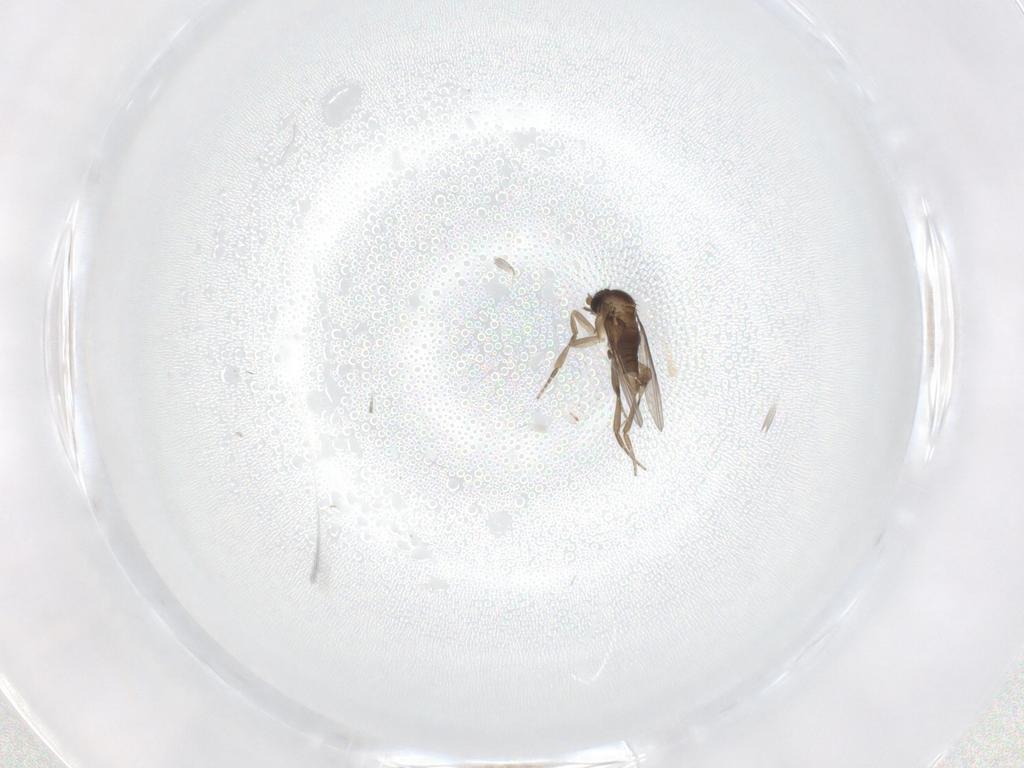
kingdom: Animalia
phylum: Arthropoda
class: Insecta
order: Diptera
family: Phoridae
